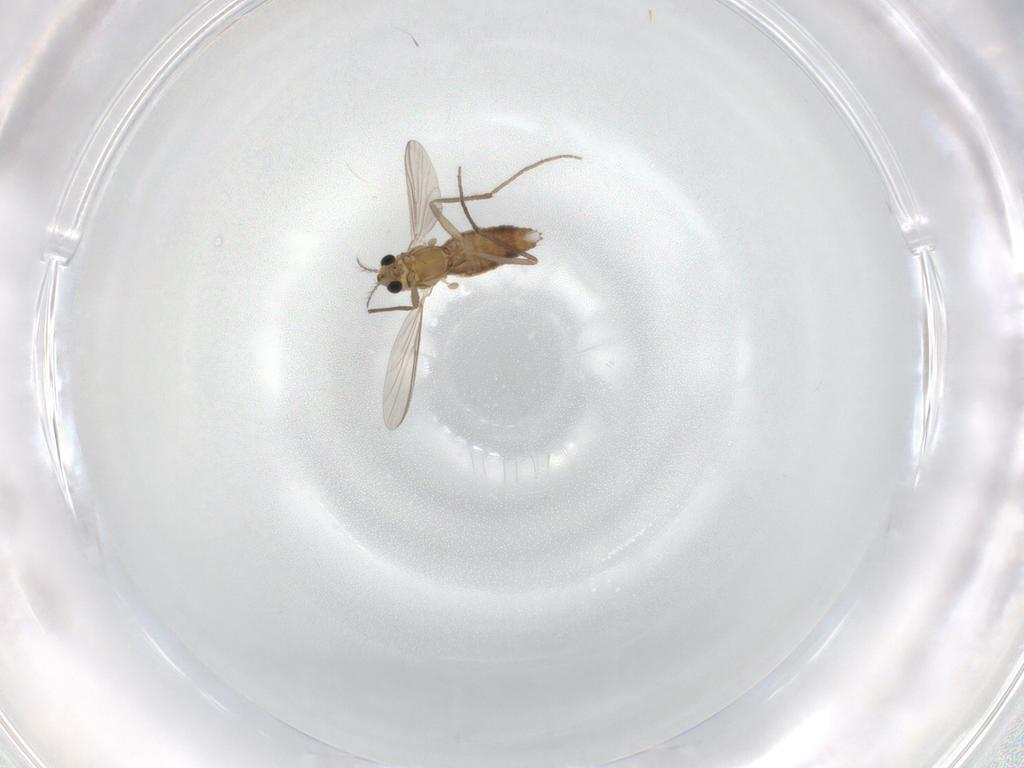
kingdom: Animalia
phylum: Arthropoda
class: Insecta
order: Diptera
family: Chironomidae
